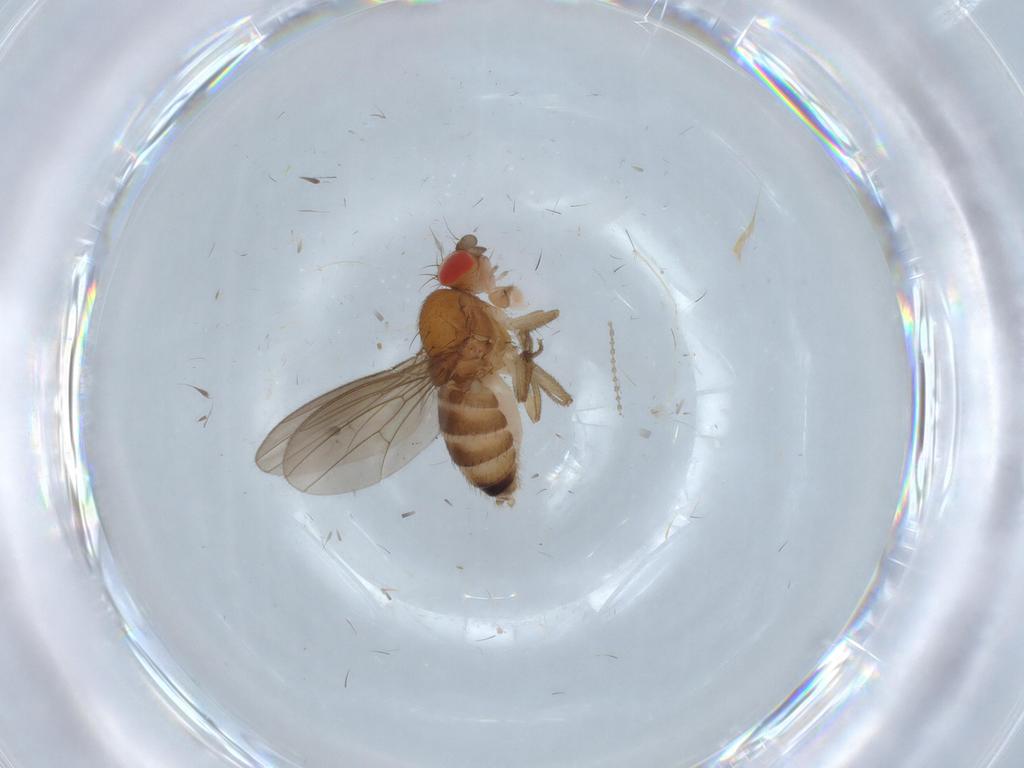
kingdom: Animalia
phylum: Arthropoda
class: Insecta
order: Diptera
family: Drosophilidae
